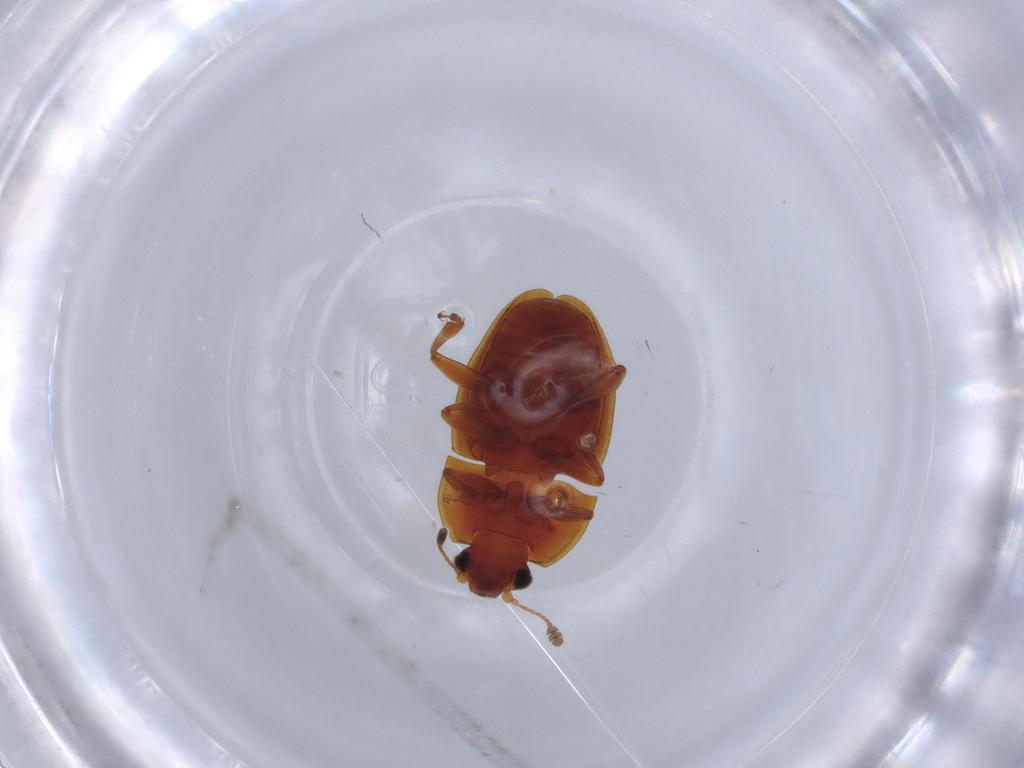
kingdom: Animalia
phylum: Arthropoda
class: Insecta
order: Coleoptera
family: Nitidulidae
